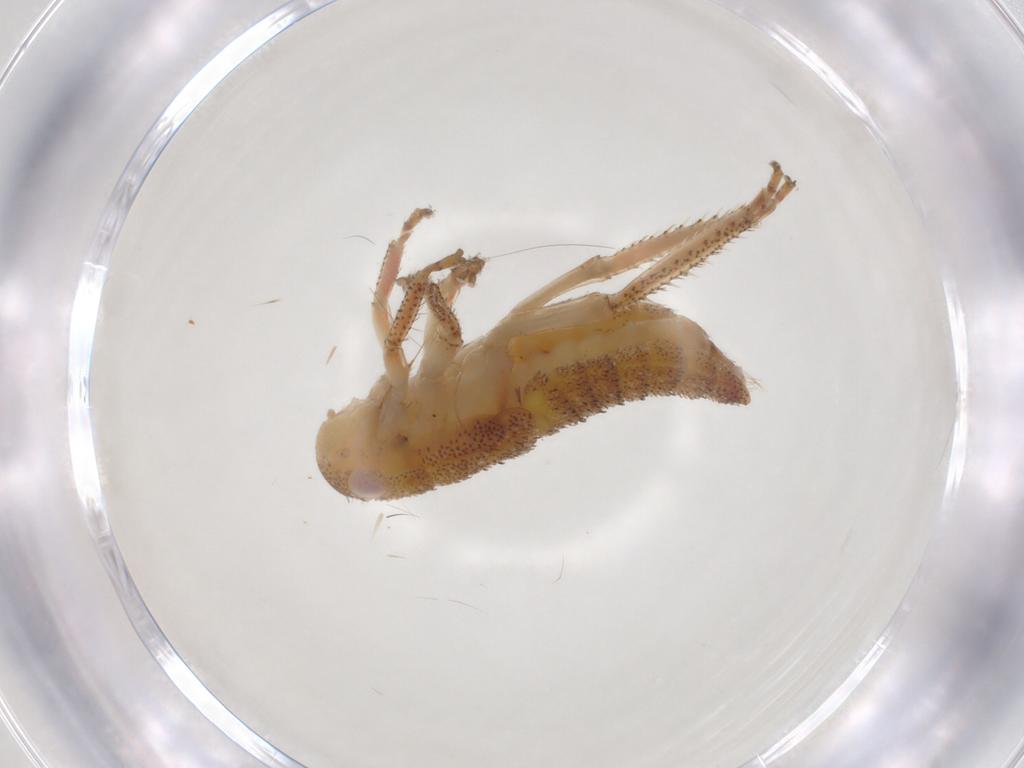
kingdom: Animalia
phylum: Arthropoda
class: Insecta
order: Hemiptera
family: Cicadellidae
